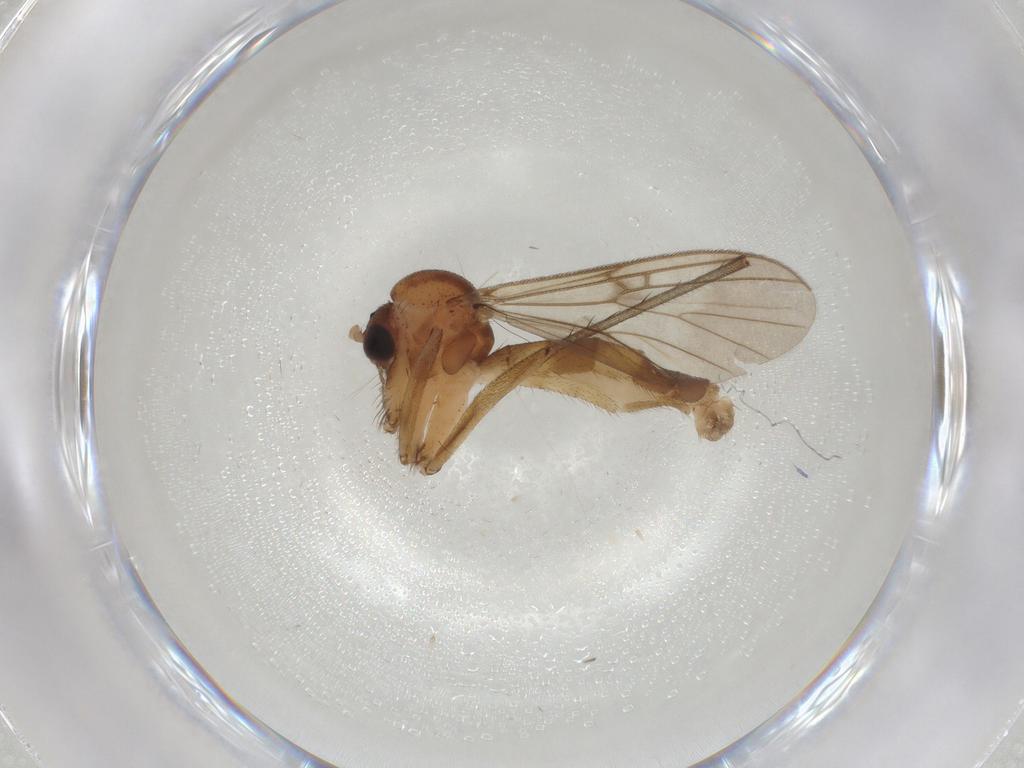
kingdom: Animalia
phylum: Arthropoda
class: Insecta
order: Diptera
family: Mycetophilidae
